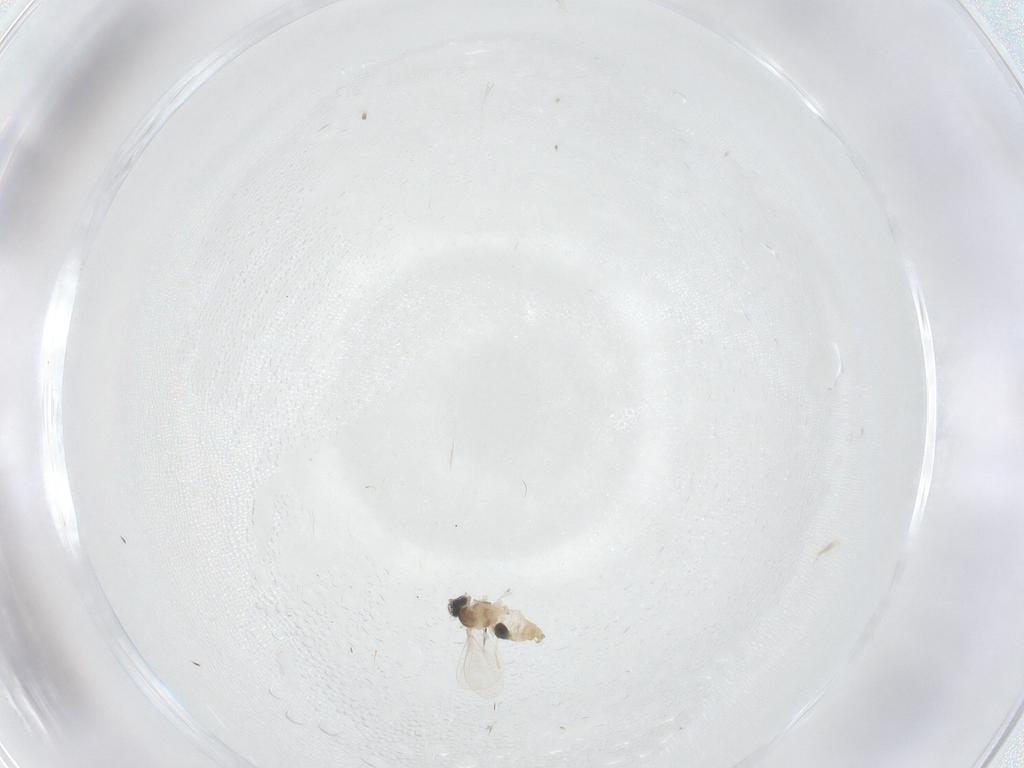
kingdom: Animalia
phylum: Arthropoda
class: Insecta
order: Diptera
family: Cecidomyiidae
